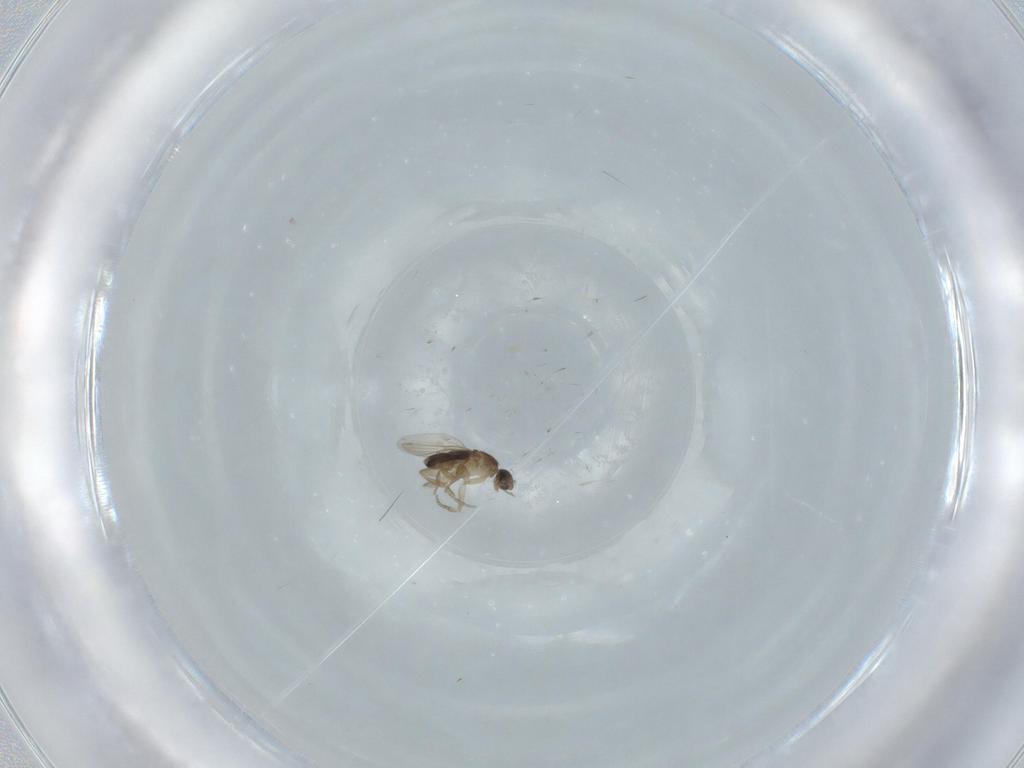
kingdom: Animalia
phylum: Arthropoda
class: Insecta
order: Diptera
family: Phoridae
